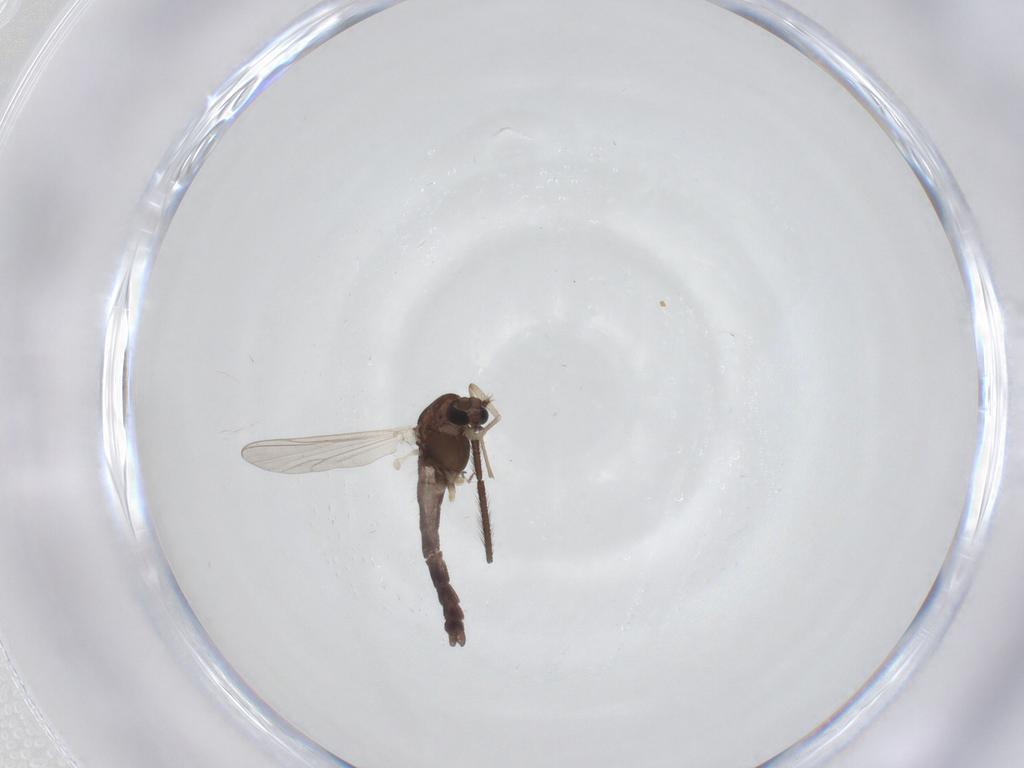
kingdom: Animalia
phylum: Arthropoda
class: Insecta
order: Diptera
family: Chironomidae
